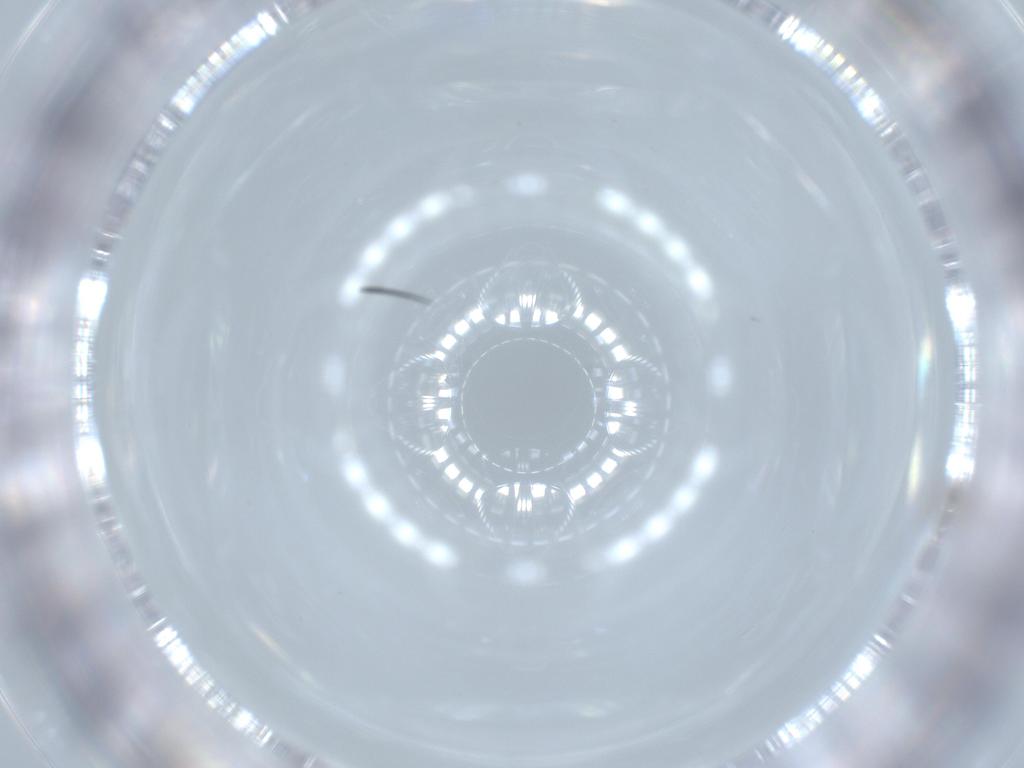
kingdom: Animalia
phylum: Arthropoda
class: Insecta
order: Diptera
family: Cecidomyiidae
